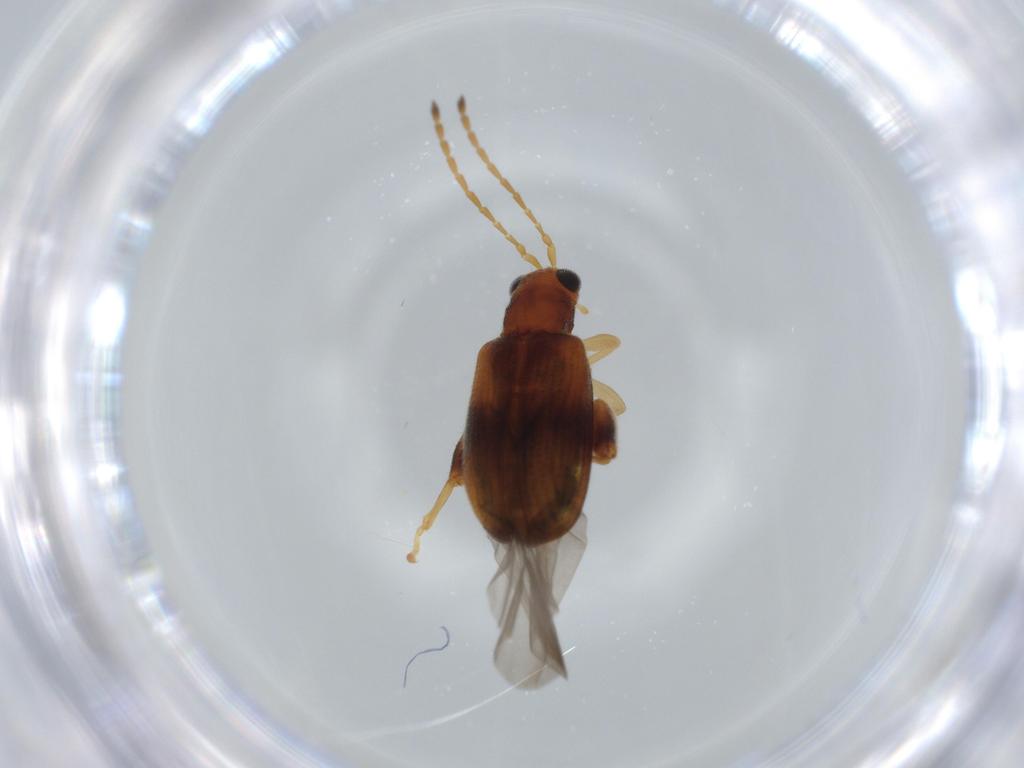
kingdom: Animalia
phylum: Arthropoda
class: Insecta
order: Coleoptera
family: Chrysomelidae
